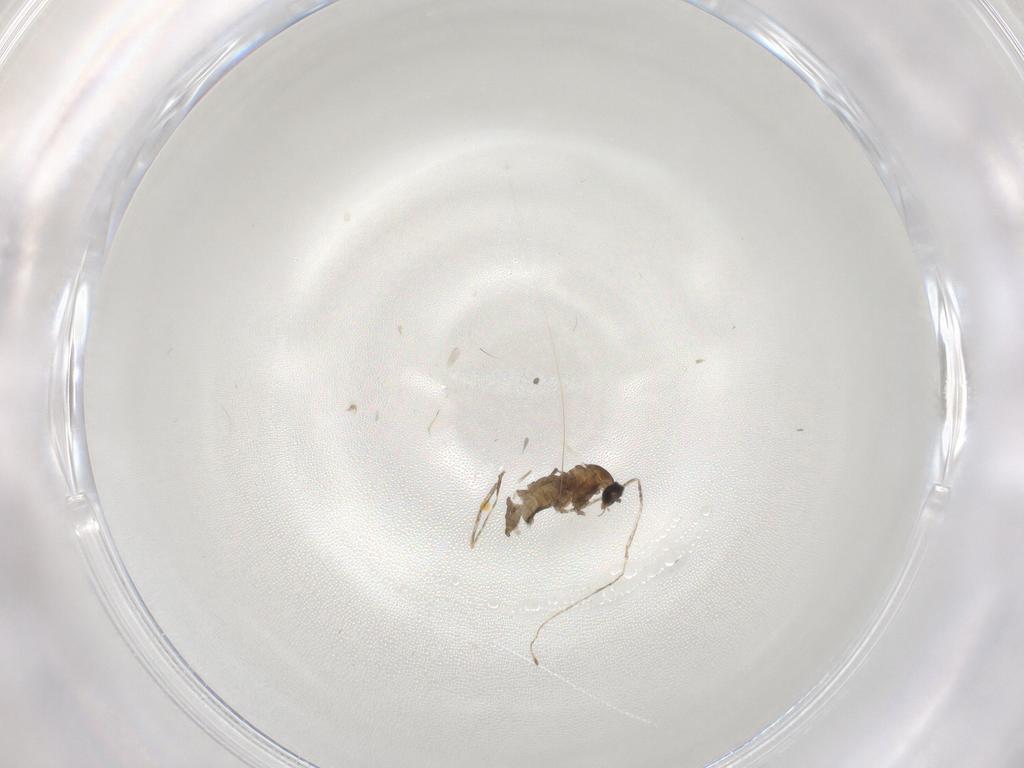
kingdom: Animalia
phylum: Arthropoda
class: Insecta
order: Diptera
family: Cecidomyiidae
